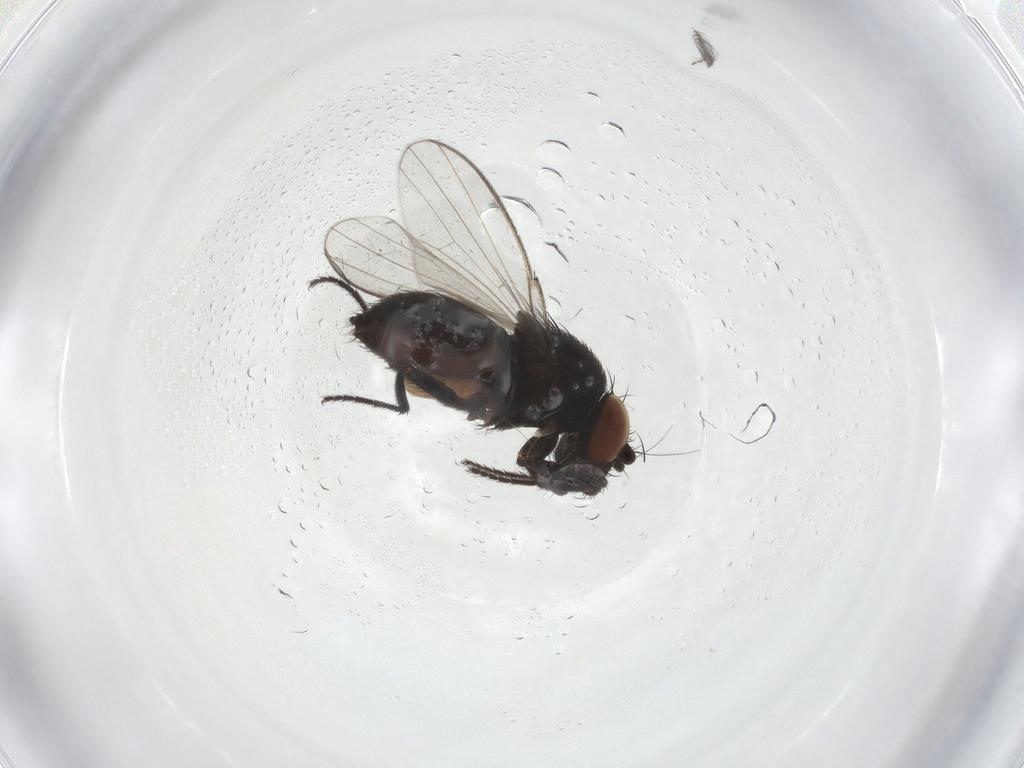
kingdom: Animalia
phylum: Arthropoda
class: Insecta
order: Diptera
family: Milichiidae
